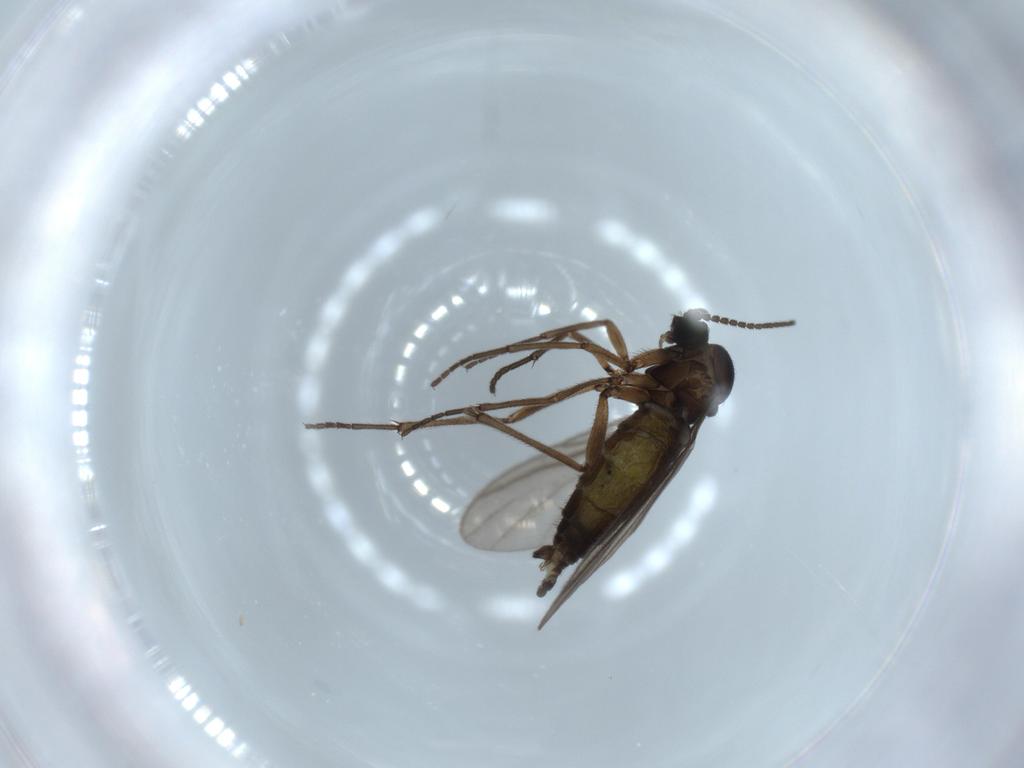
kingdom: Animalia
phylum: Arthropoda
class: Insecta
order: Diptera
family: Sciaridae
